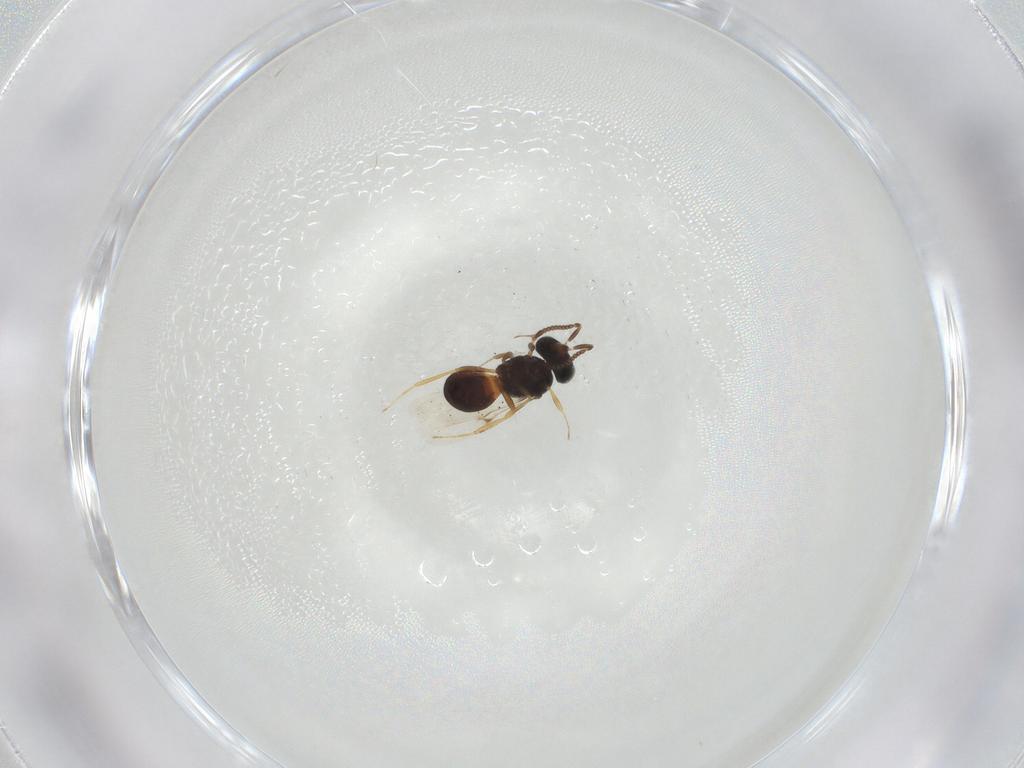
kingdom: Animalia
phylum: Arthropoda
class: Arachnida
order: Araneae
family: Pholcidae
